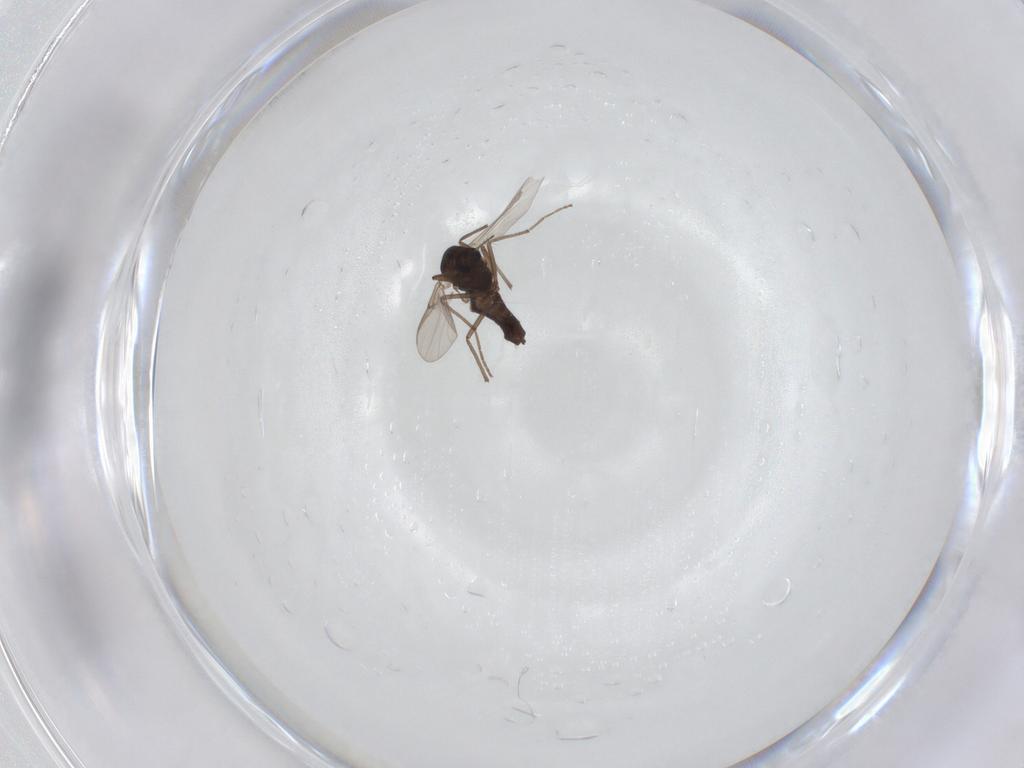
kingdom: Animalia
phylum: Arthropoda
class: Insecta
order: Diptera
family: Chironomidae
